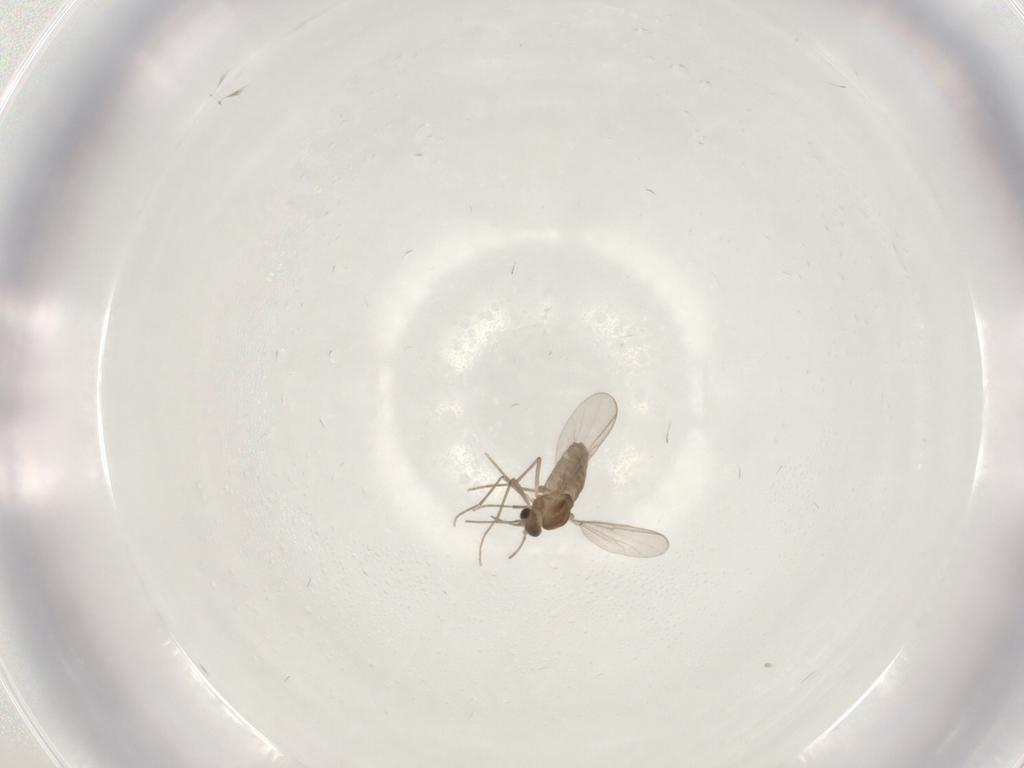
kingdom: Animalia
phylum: Arthropoda
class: Insecta
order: Diptera
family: Chironomidae
